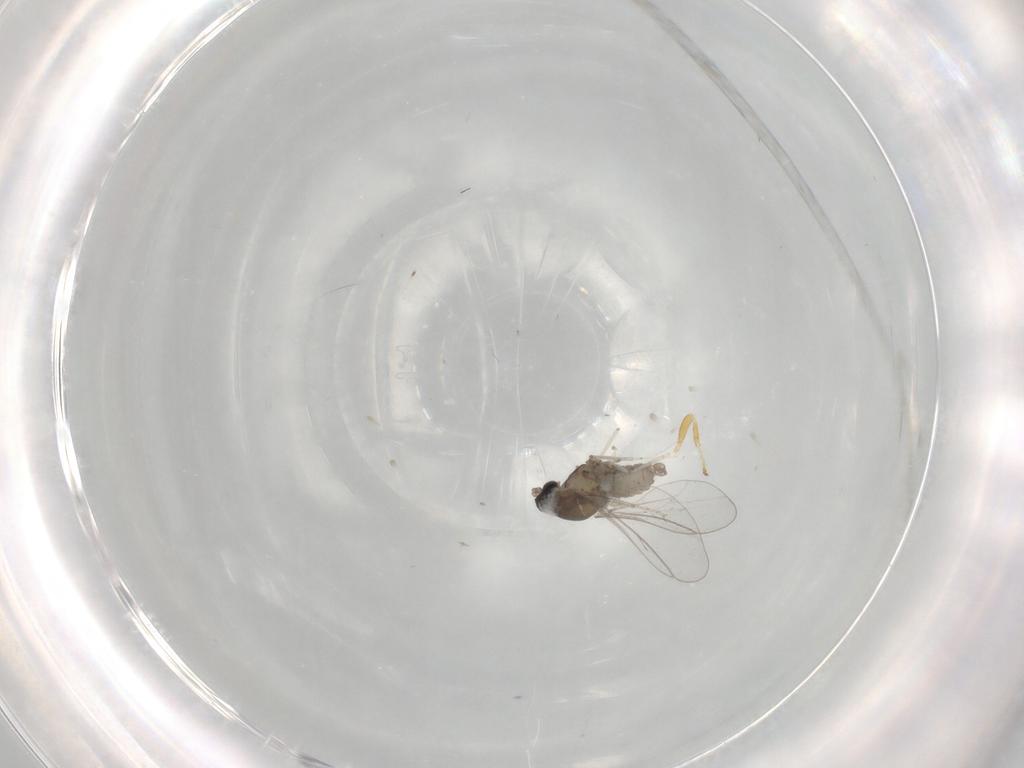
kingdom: Animalia
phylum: Arthropoda
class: Insecta
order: Diptera
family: Cecidomyiidae
